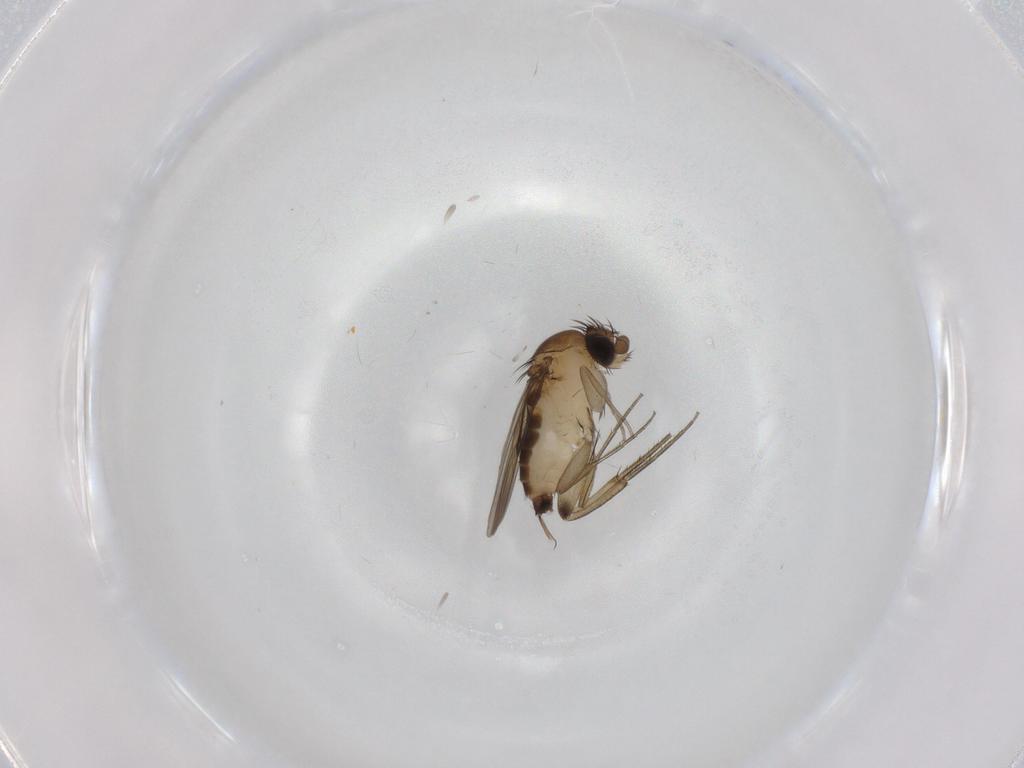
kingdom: Animalia
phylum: Arthropoda
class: Insecta
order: Diptera
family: Phoridae
